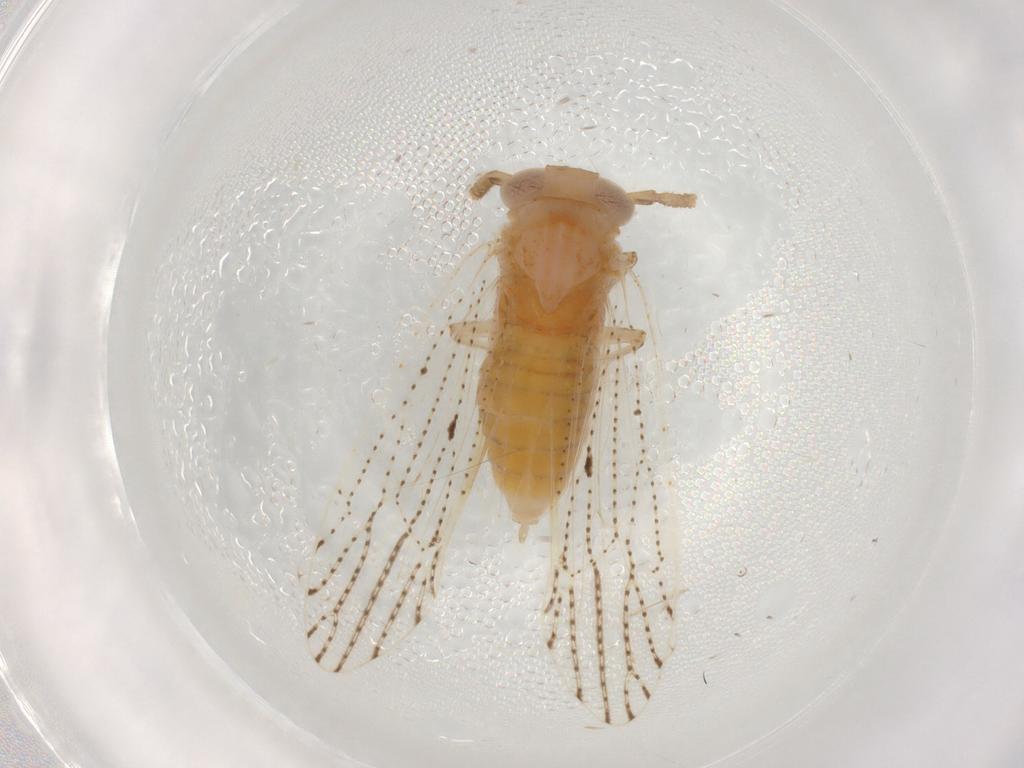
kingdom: Animalia
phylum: Arthropoda
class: Insecta
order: Hemiptera
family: Delphacidae
